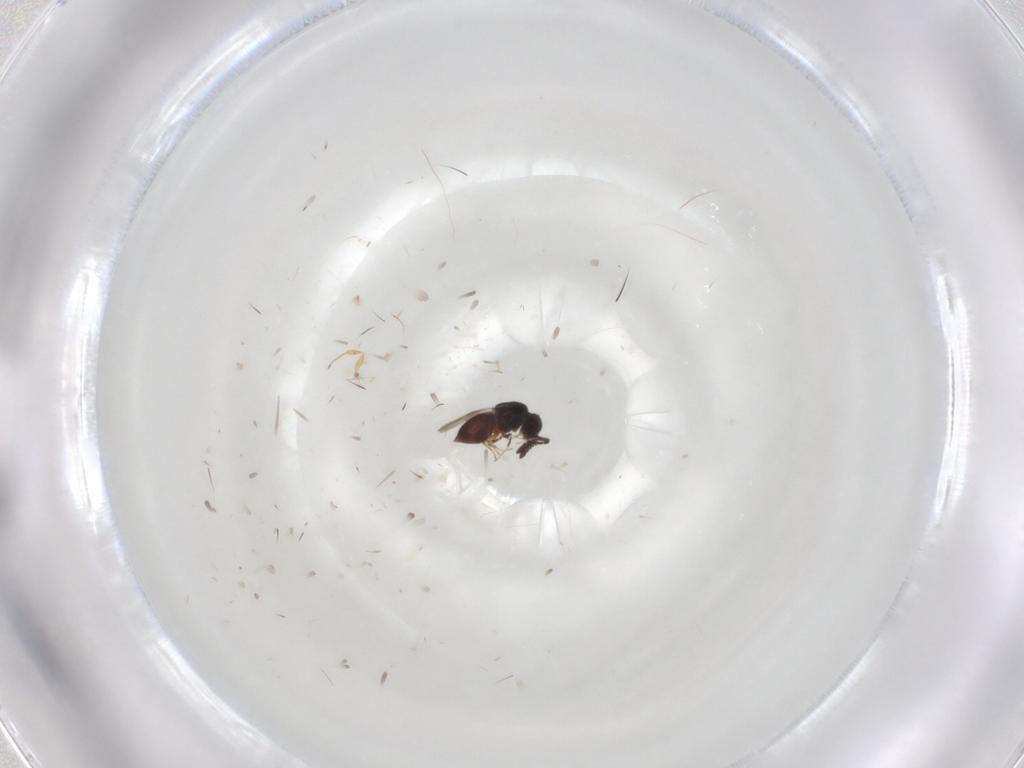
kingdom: Animalia
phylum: Arthropoda
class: Insecta
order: Hymenoptera
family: Scelionidae
